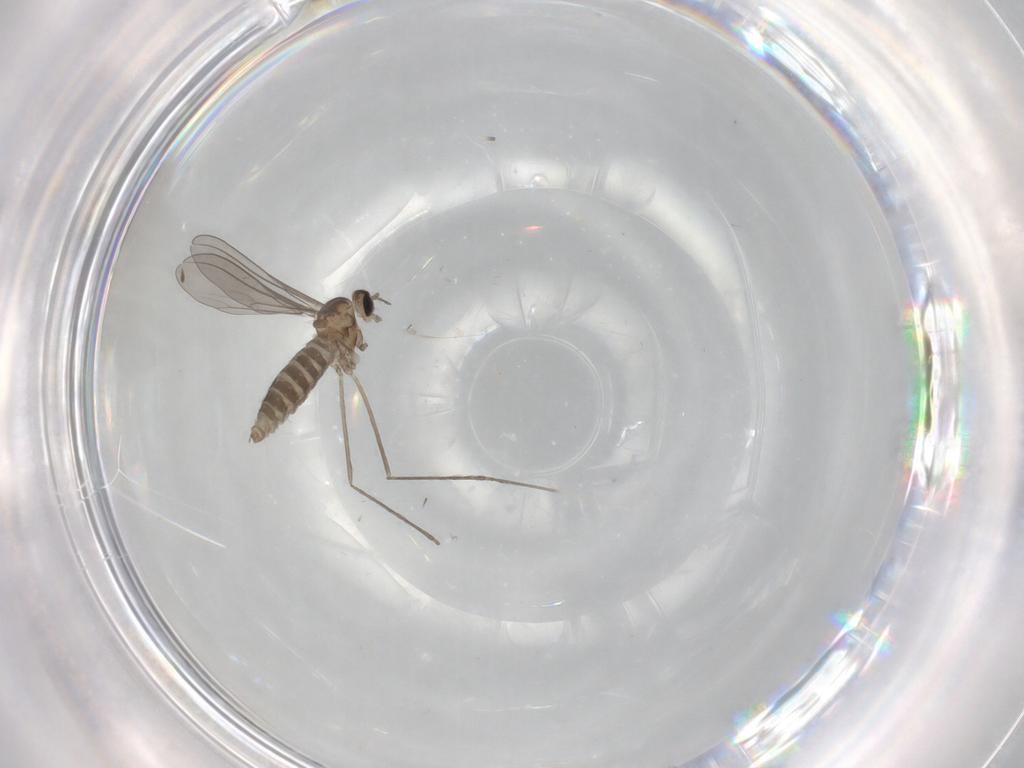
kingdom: Animalia
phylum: Arthropoda
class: Insecta
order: Diptera
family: Cecidomyiidae
